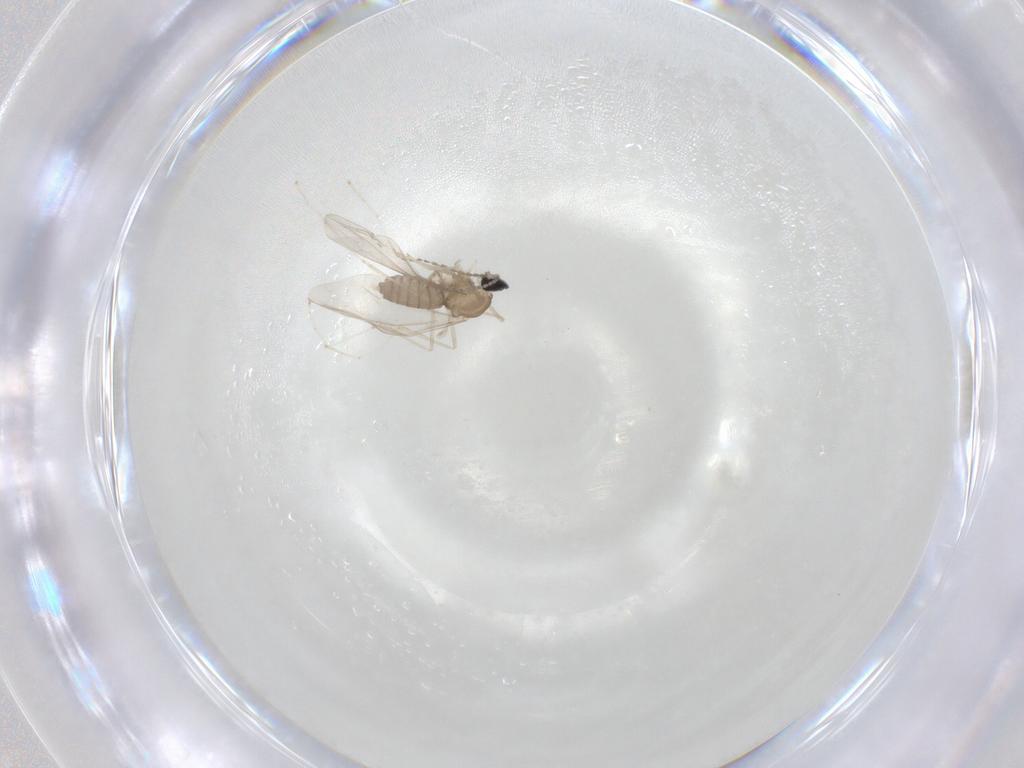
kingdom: Animalia
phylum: Arthropoda
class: Insecta
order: Diptera
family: Cecidomyiidae
